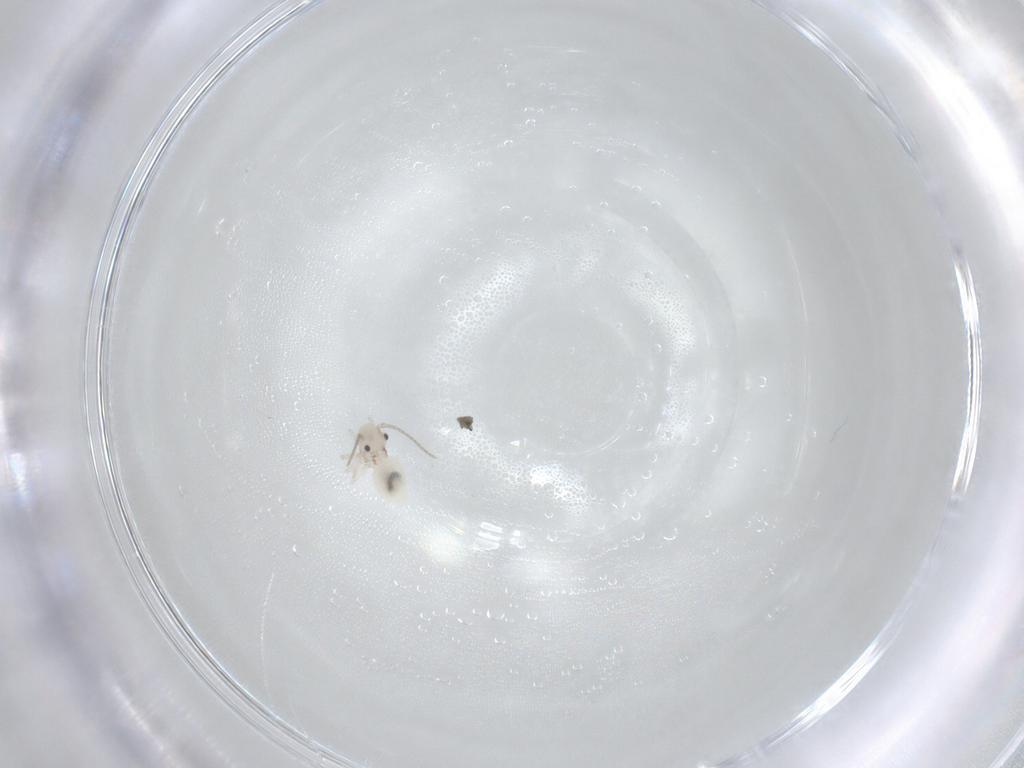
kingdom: Animalia
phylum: Arthropoda
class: Insecta
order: Psocodea
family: Caeciliusidae
